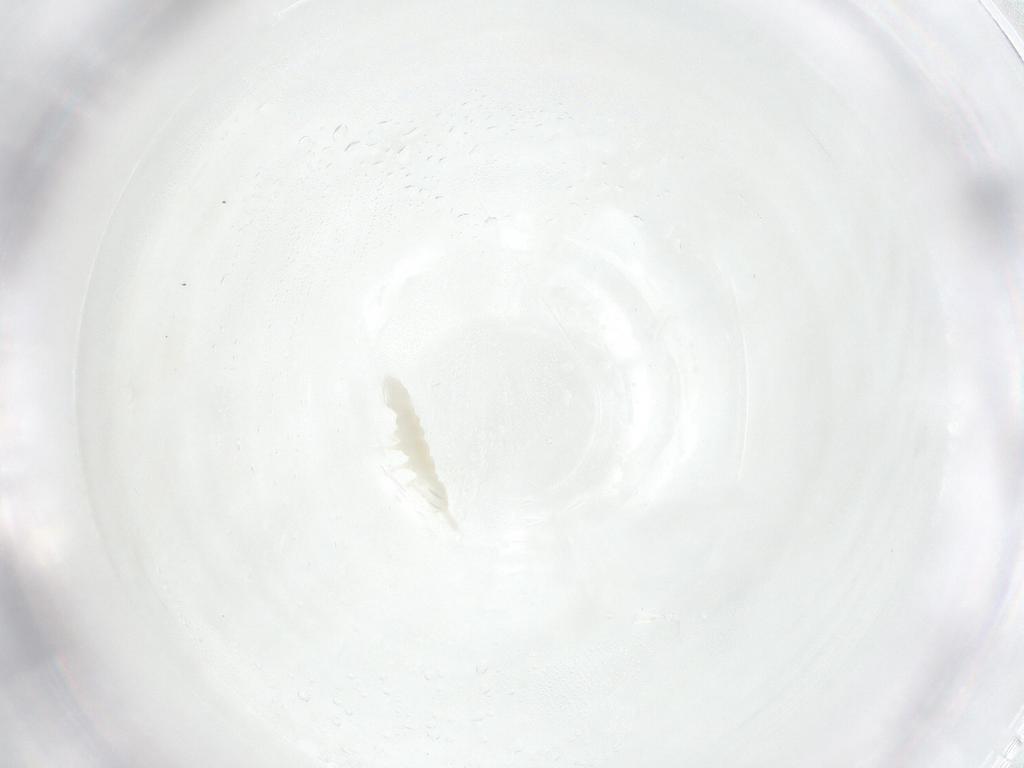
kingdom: Animalia
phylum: Arthropoda
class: Collembola
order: Poduromorpha
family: Onychiuridae
